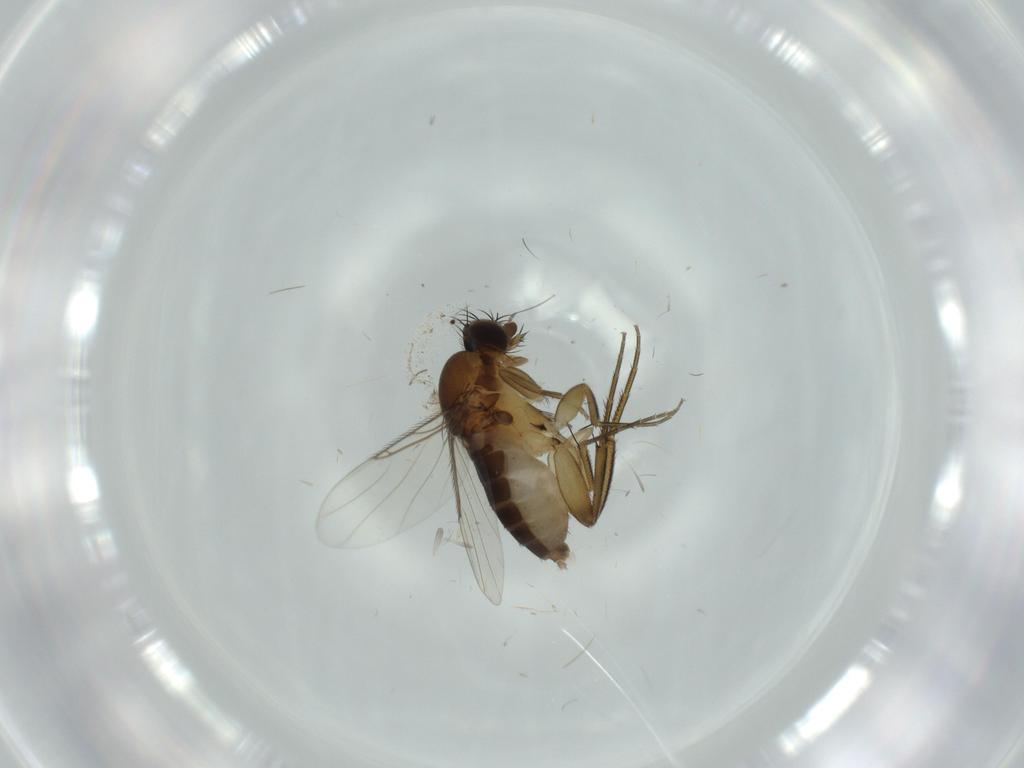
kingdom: Animalia
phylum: Arthropoda
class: Insecta
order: Diptera
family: Phoridae
